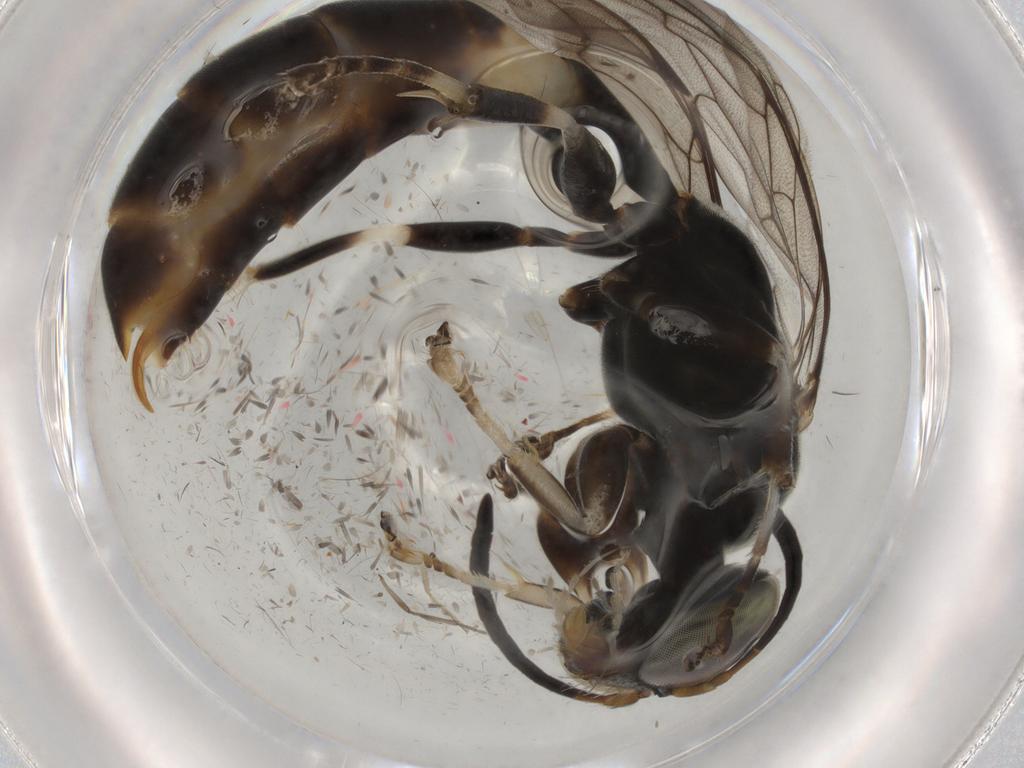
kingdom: Animalia
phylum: Arthropoda
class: Insecta
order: Hymenoptera
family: Crabronidae
